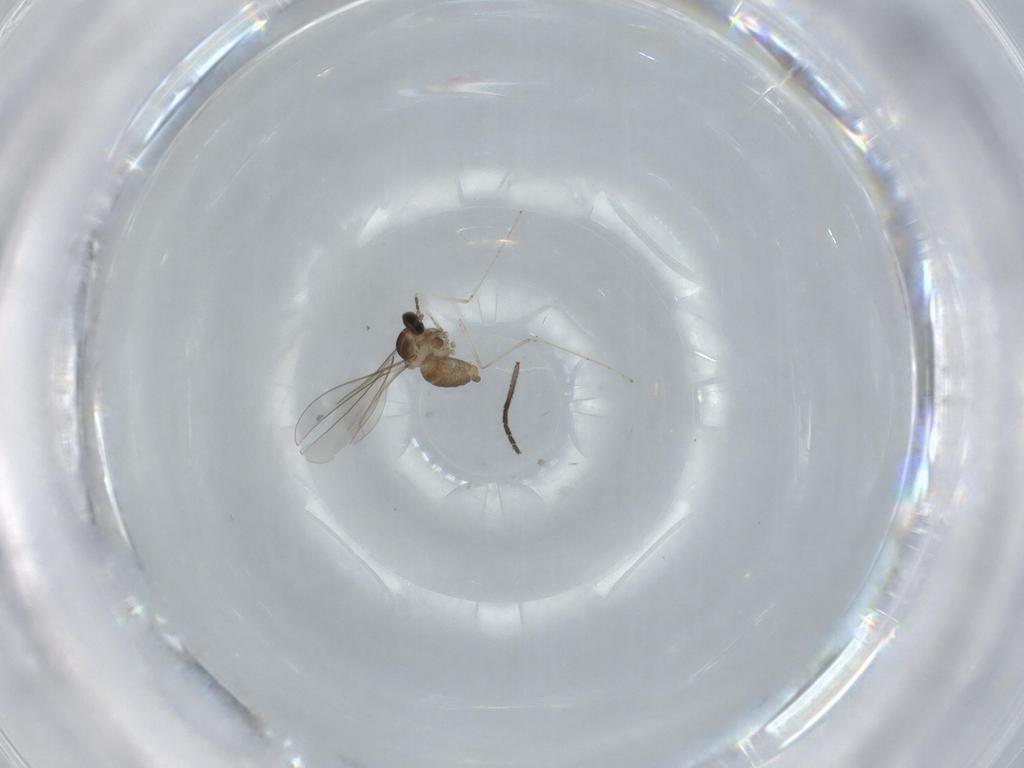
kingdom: Animalia
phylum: Arthropoda
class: Insecta
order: Diptera
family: Cecidomyiidae
